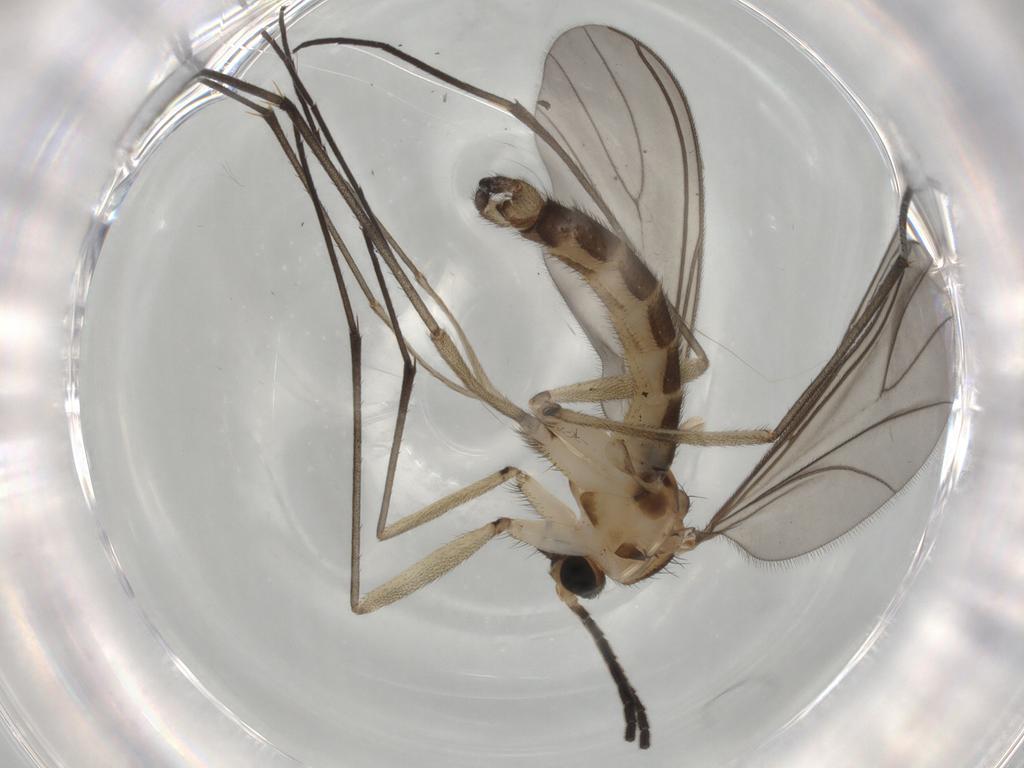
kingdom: Animalia
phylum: Arthropoda
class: Insecta
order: Diptera
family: Sciaridae
